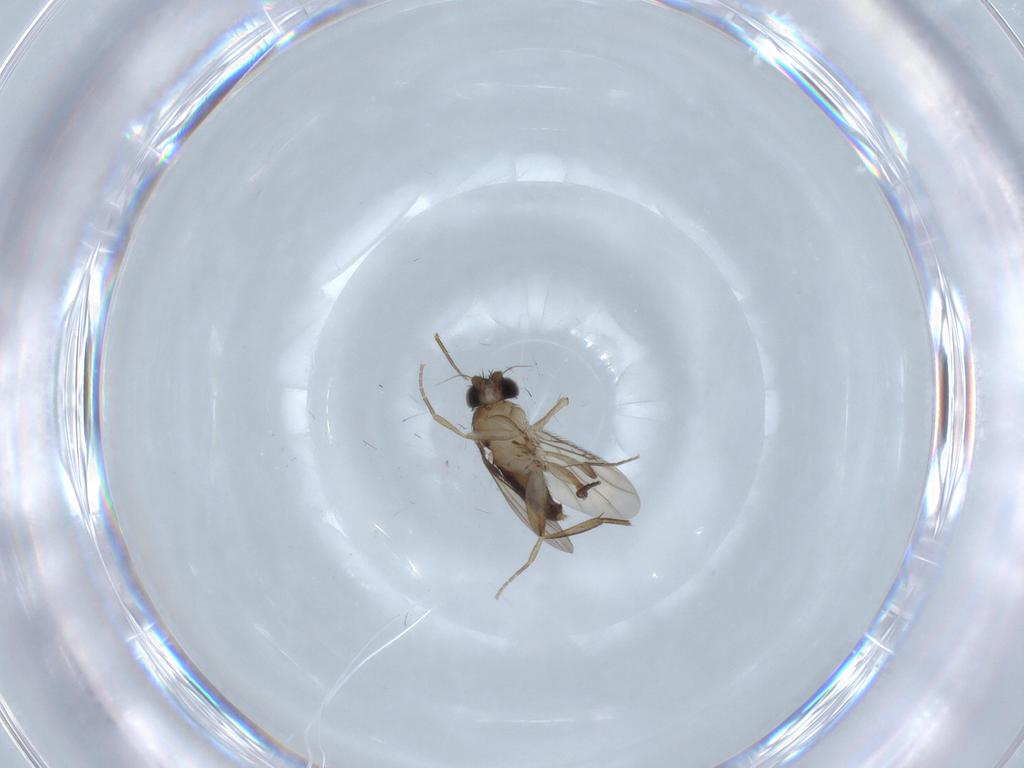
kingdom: Animalia
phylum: Arthropoda
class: Insecta
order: Diptera
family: Phoridae
